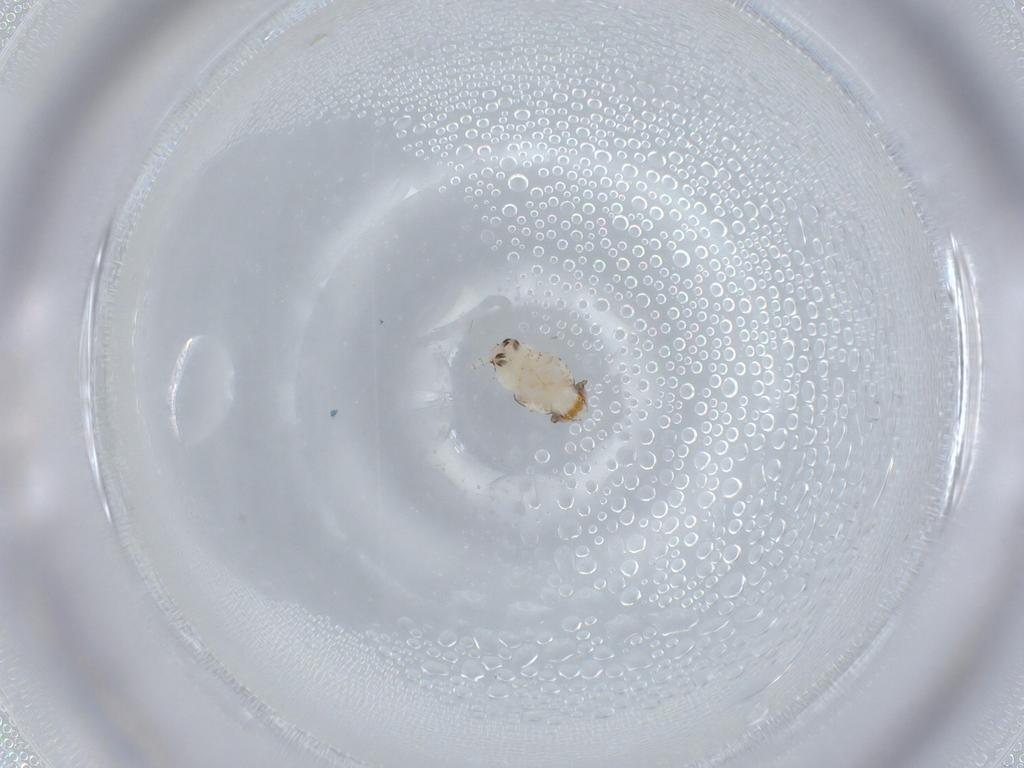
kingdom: Animalia
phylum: Arthropoda
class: Insecta
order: Hemiptera
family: Nogodinidae
